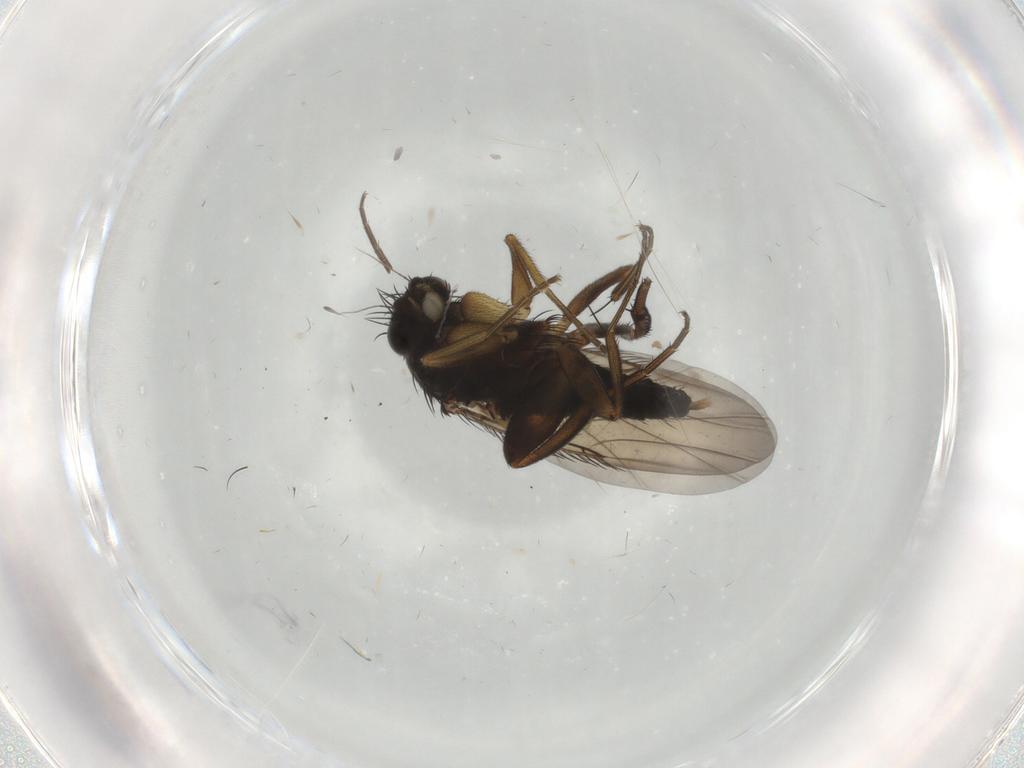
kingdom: Animalia
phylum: Arthropoda
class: Insecta
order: Diptera
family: Phoridae
